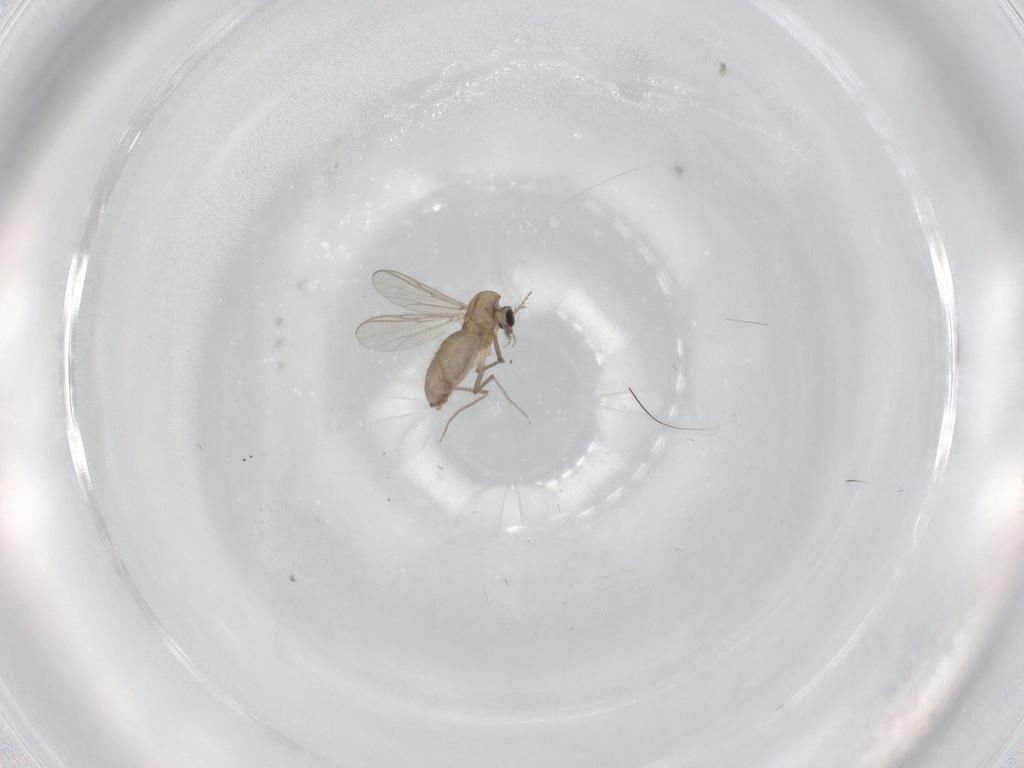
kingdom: Animalia
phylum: Arthropoda
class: Insecta
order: Diptera
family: Chironomidae
